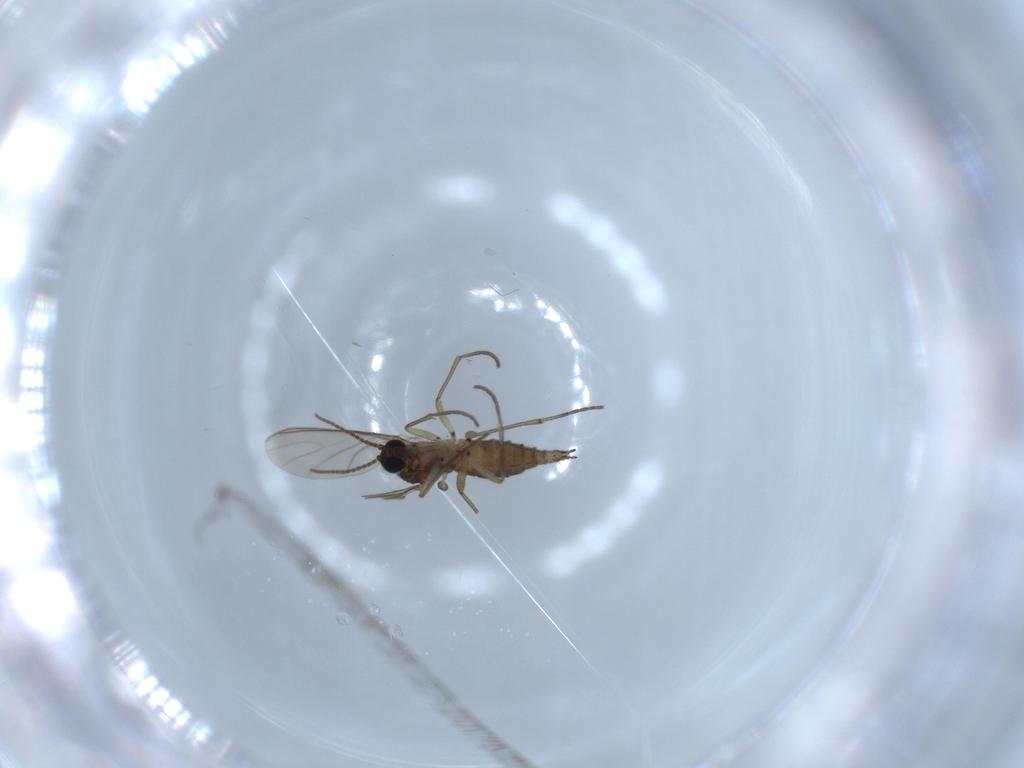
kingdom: Animalia
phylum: Arthropoda
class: Insecta
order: Diptera
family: Sciaridae
